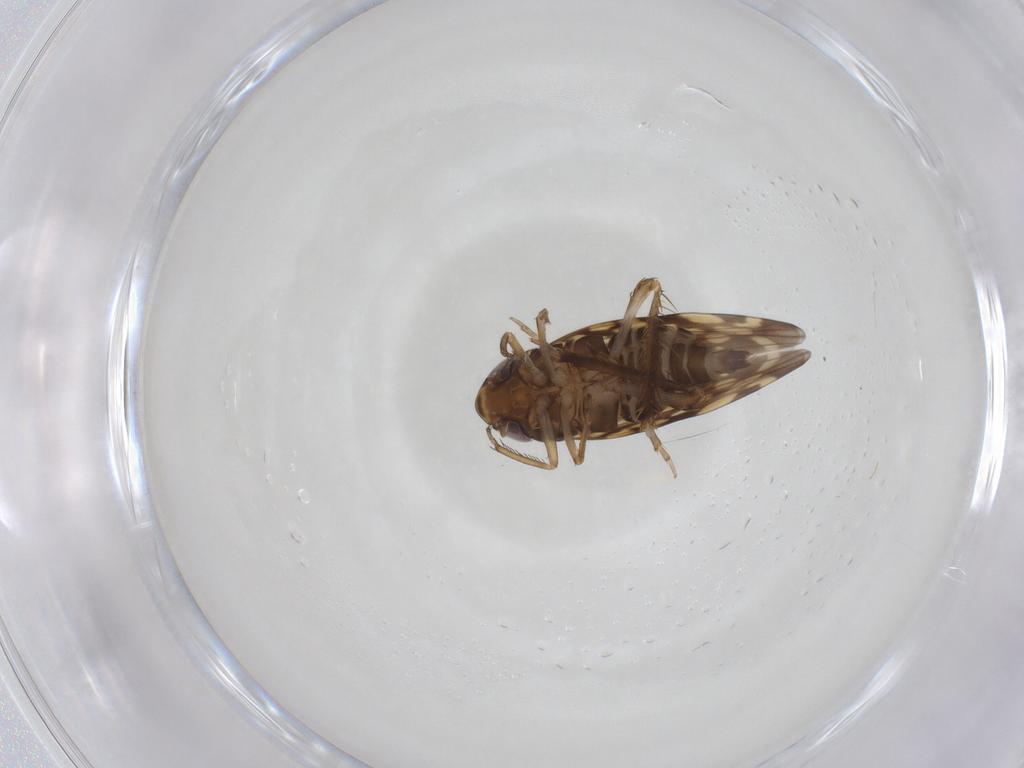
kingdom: Animalia
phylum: Arthropoda
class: Insecta
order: Hemiptera
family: Cicadellidae
